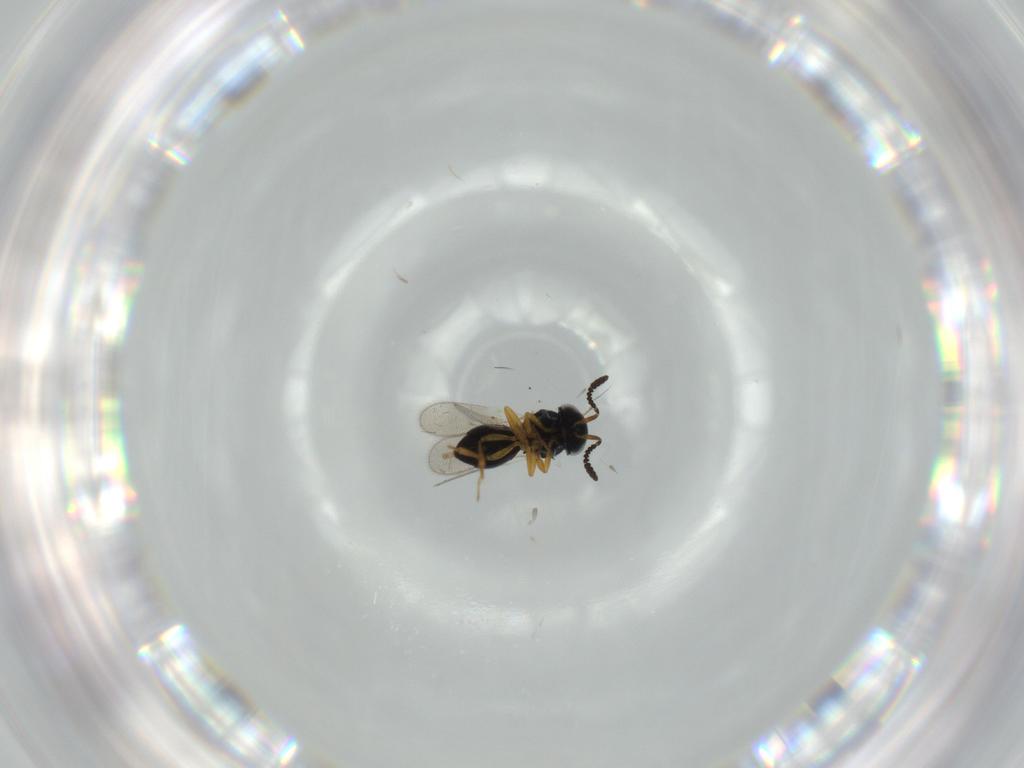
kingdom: Animalia
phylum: Arthropoda
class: Insecta
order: Hymenoptera
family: Scelionidae
